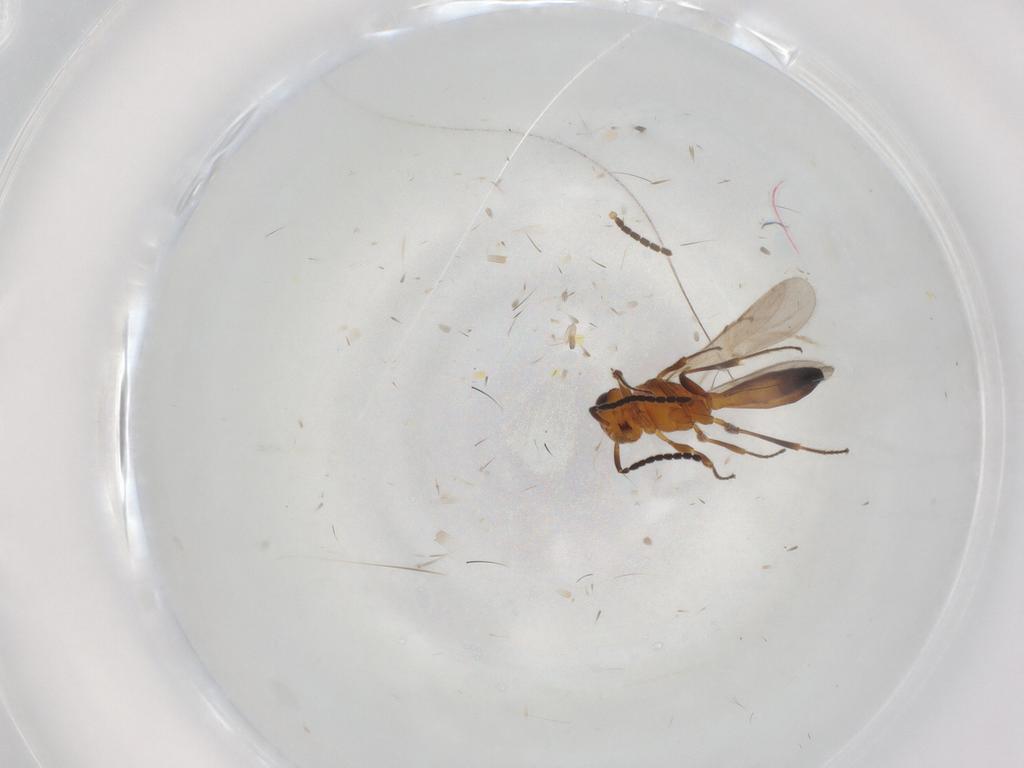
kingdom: Animalia
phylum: Arthropoda
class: Insecta
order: Hymenoptera
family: Scelionidae
